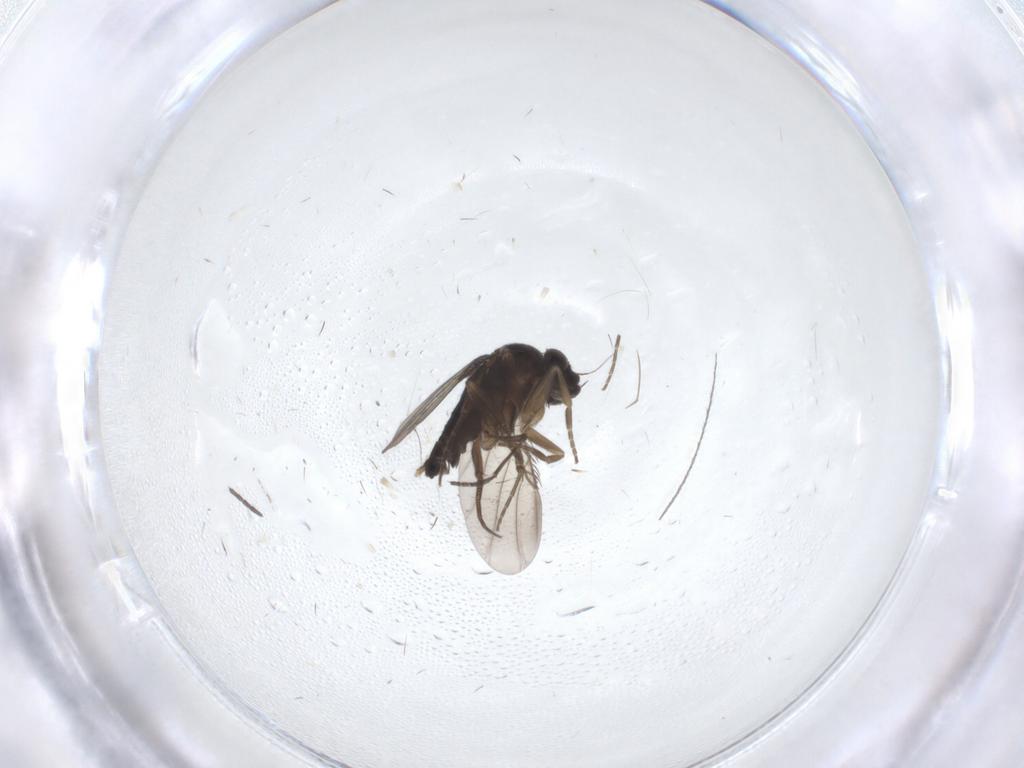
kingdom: Animalia
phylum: Arthropoda
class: Insecta
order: Diptera
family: Phoridae
